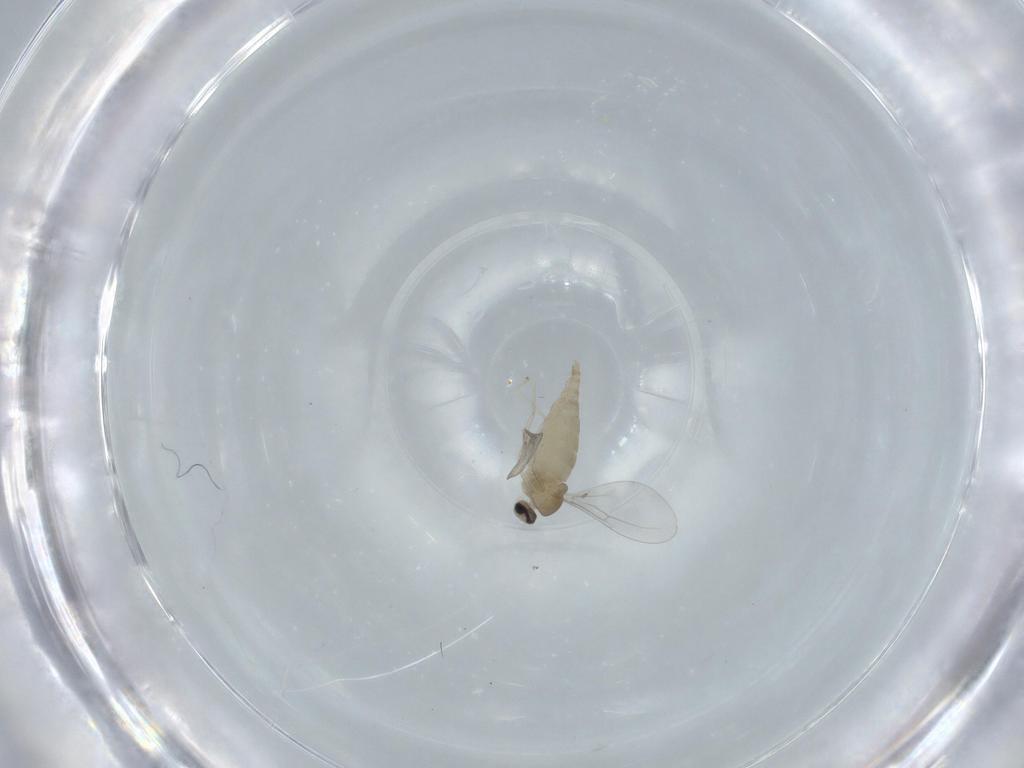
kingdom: Animalia
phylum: Arthropoda
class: Insecta
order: Diptera
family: Cecidomyiidae
